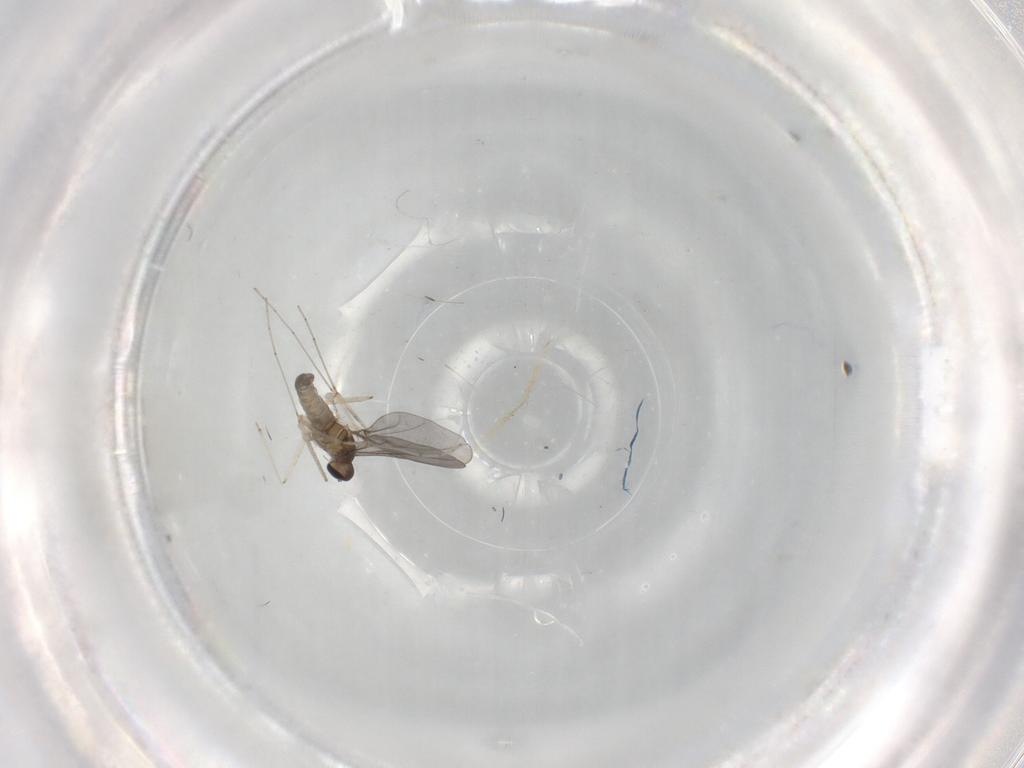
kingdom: Animalia
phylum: Arthropoda
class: Insecta
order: Diptera
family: Cecidomyiidae
